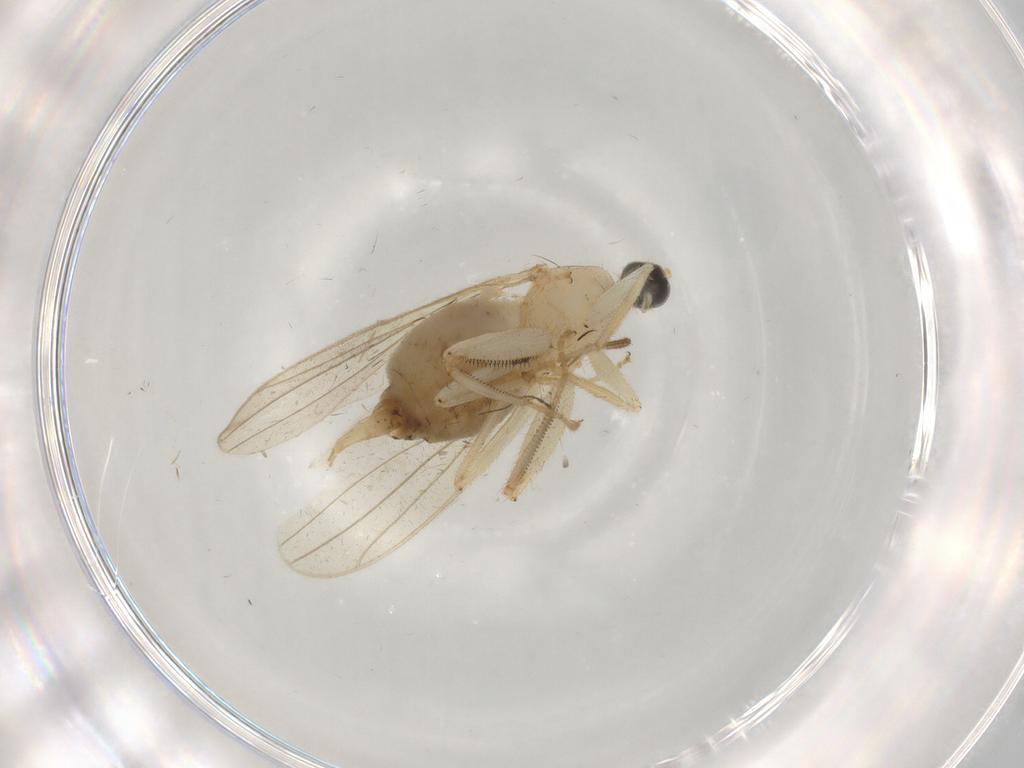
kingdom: Animalia
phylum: Arthropoda
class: Insecta
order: Diptera
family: Hybotidae
